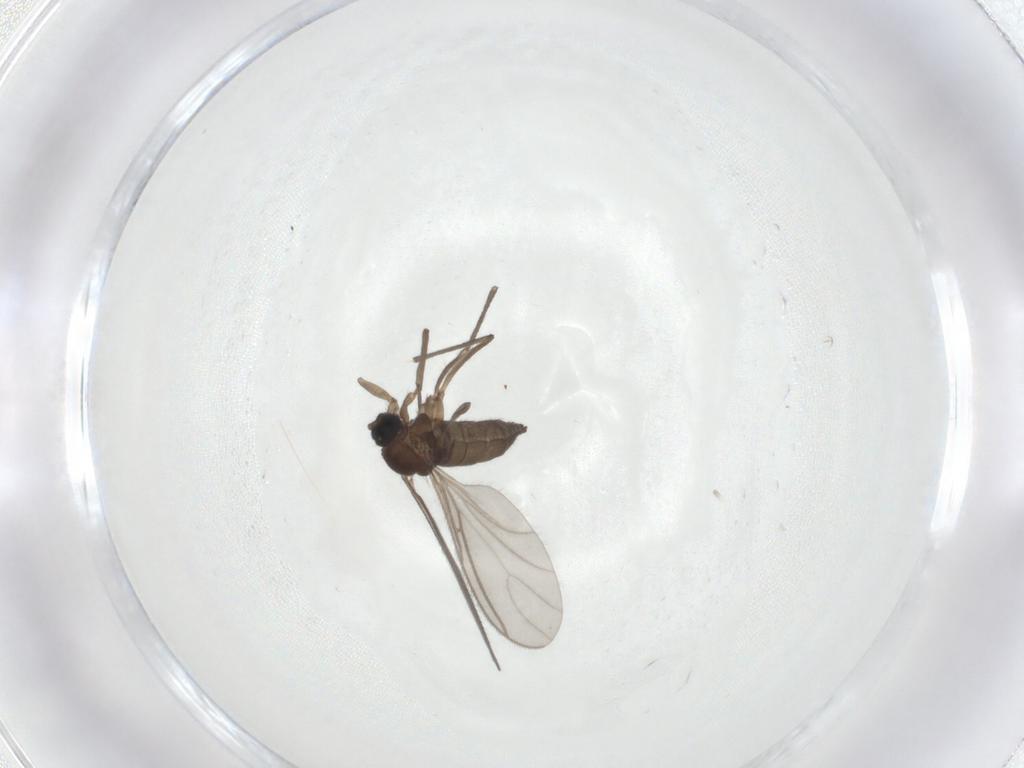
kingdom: Animalia
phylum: Arthropoda
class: Insecta
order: Diptera
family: Sciaridae
